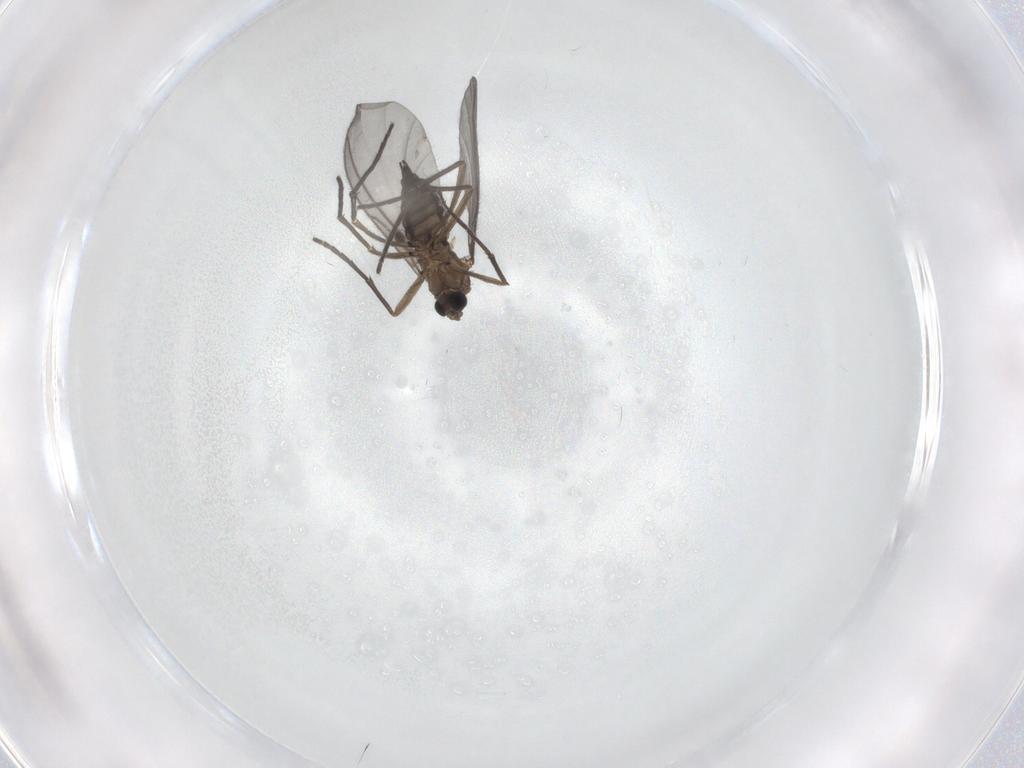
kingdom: Animalia
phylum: Arthropoda
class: Insecta
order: Diptera
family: Sciaridae
